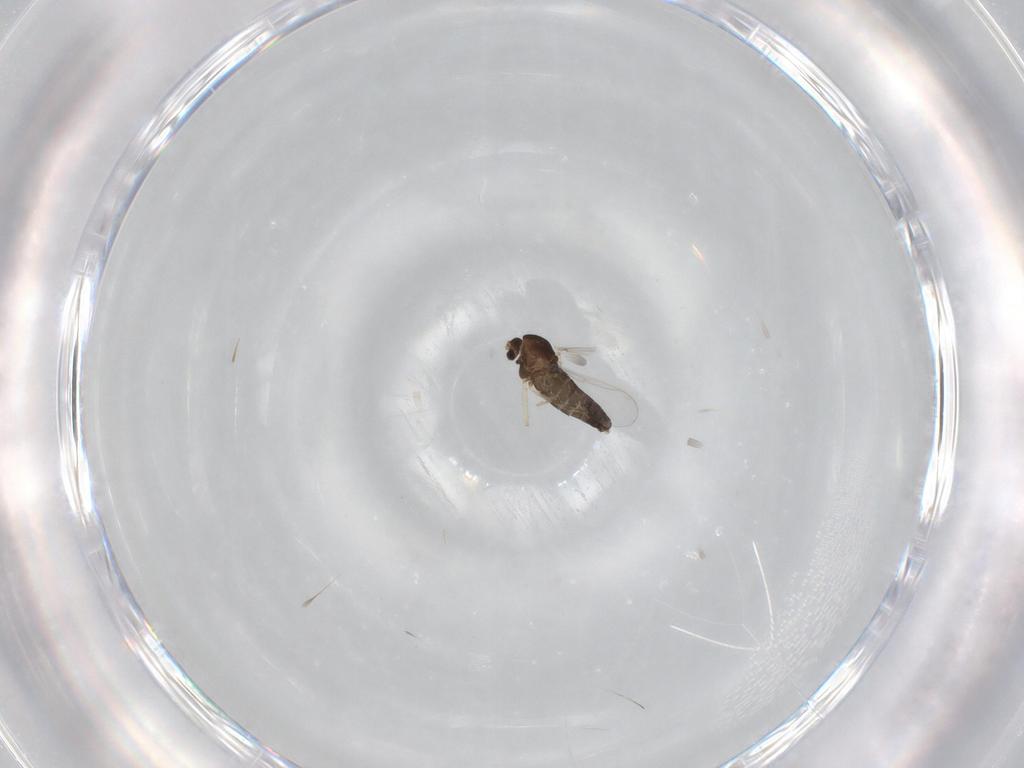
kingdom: Animalia
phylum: Arthropoda
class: Insecta
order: Diptera
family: Chironomidae
